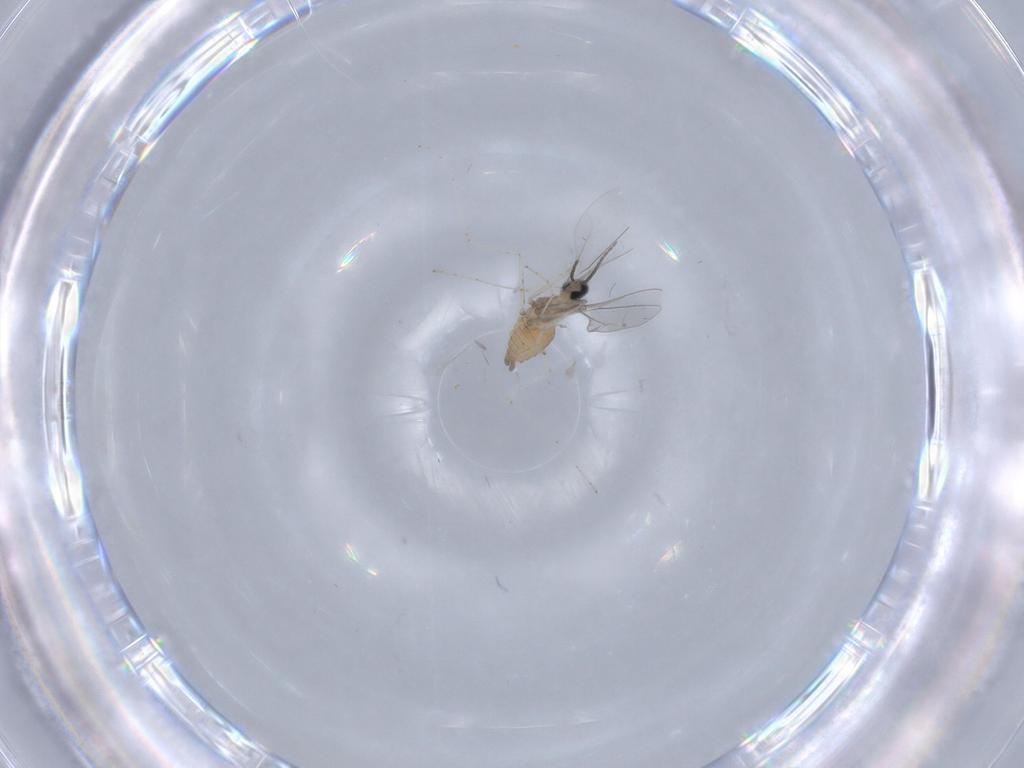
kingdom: Animalia
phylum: Arthropoda
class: Insecta
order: Diptera
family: Cecidomyiidae
